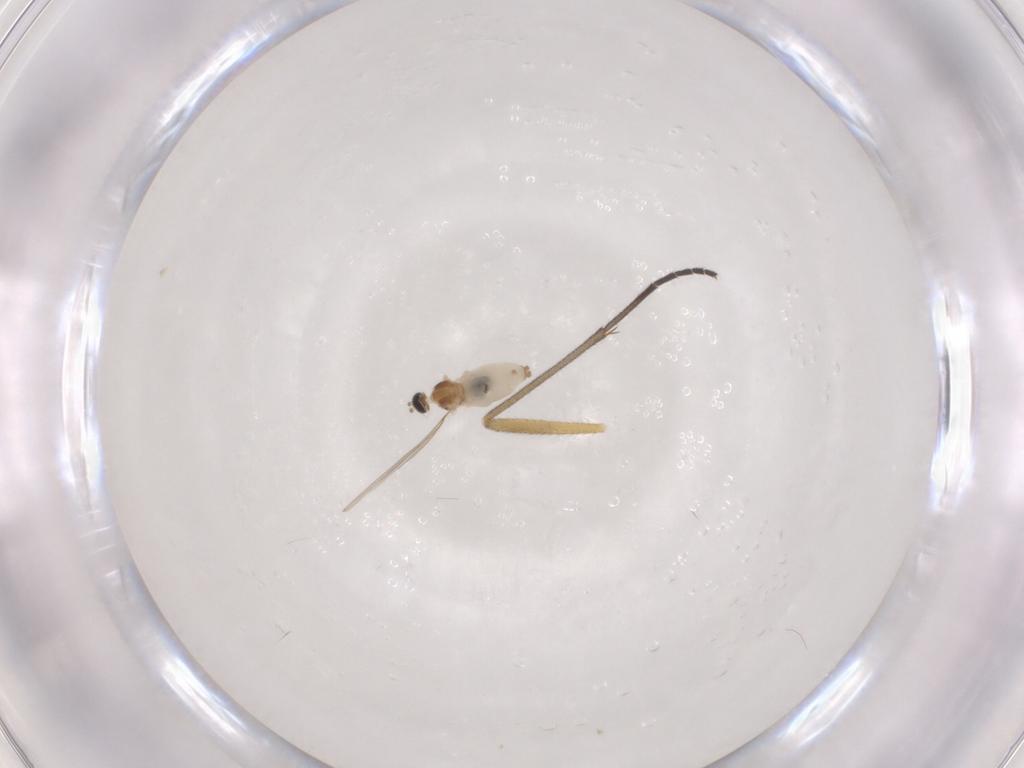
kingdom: Animalia
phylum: Arthropoda
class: Insecta
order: Diptera
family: Cecidomyiidae
